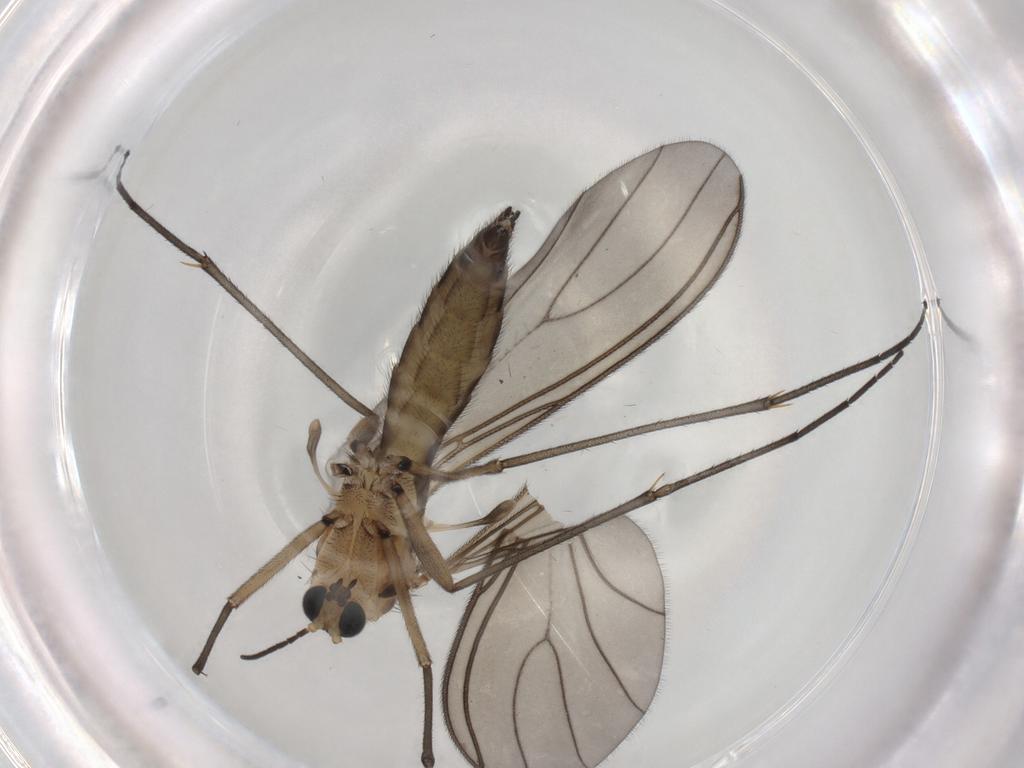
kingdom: Animalia
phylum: Arthropoda
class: Insecta
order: Diptera
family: Sciaridae
